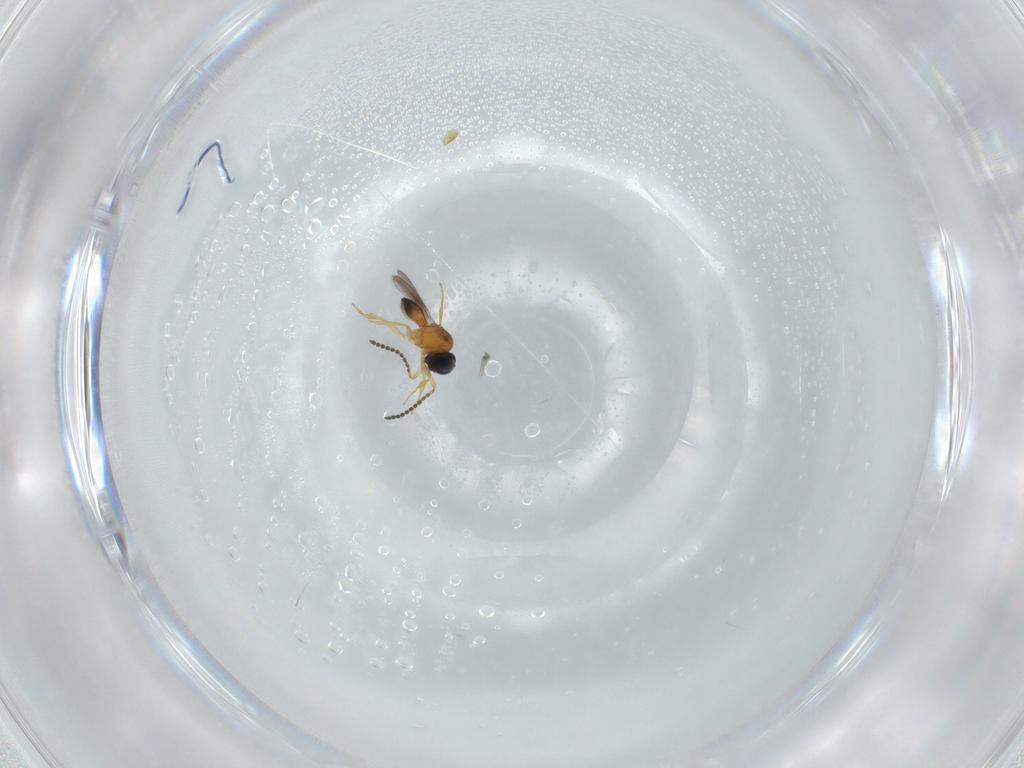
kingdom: Animalia
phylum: Arthropoda
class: Insecta
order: Hymenoptera
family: Scelionidae
